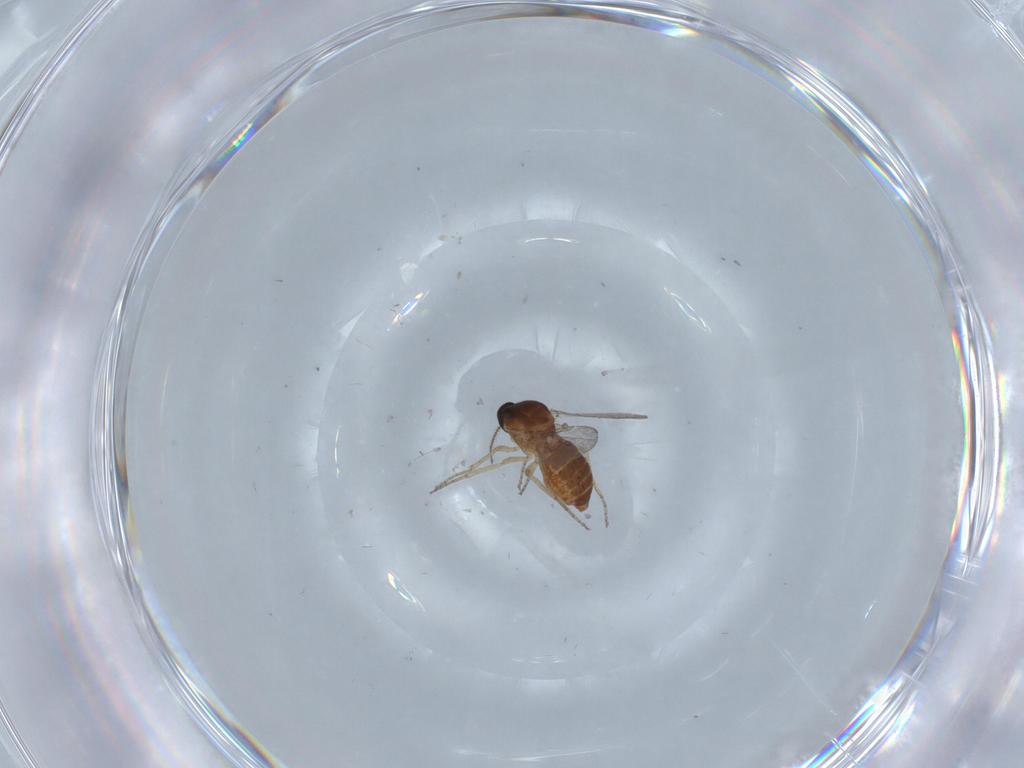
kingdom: Animalia
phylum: Arthropoda
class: Insecta
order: Diptera
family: Ceratopogonidae
